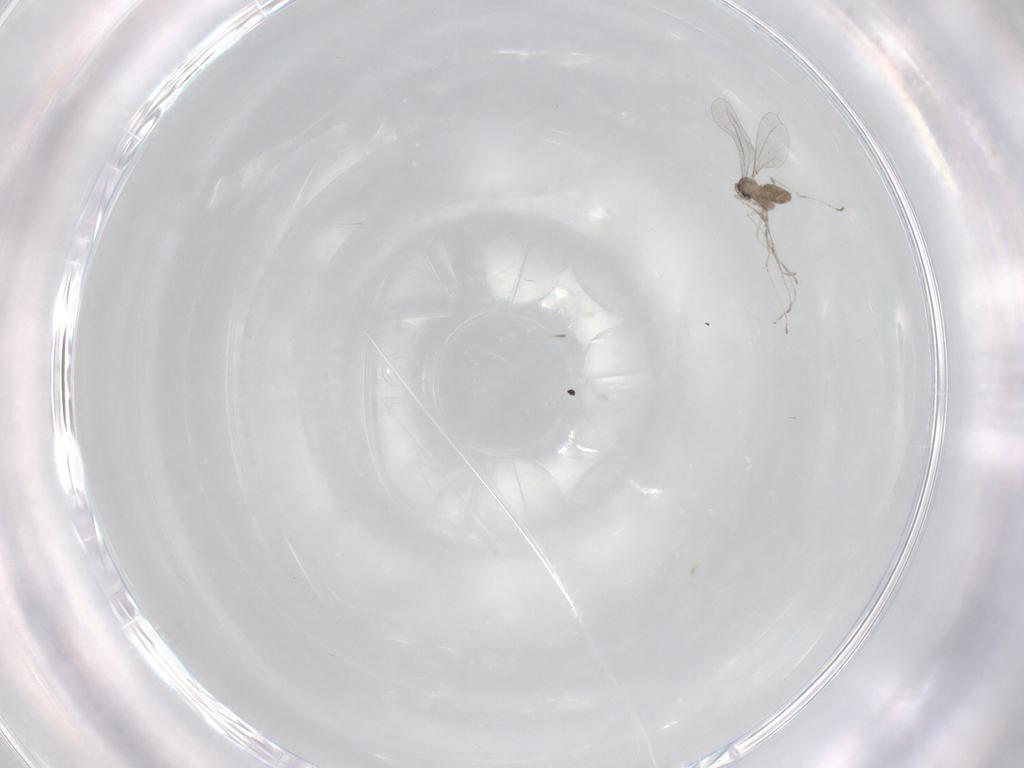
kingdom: Animalia
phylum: Arthropoda
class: Insecta
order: Diptera
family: Cecidomyiidae
